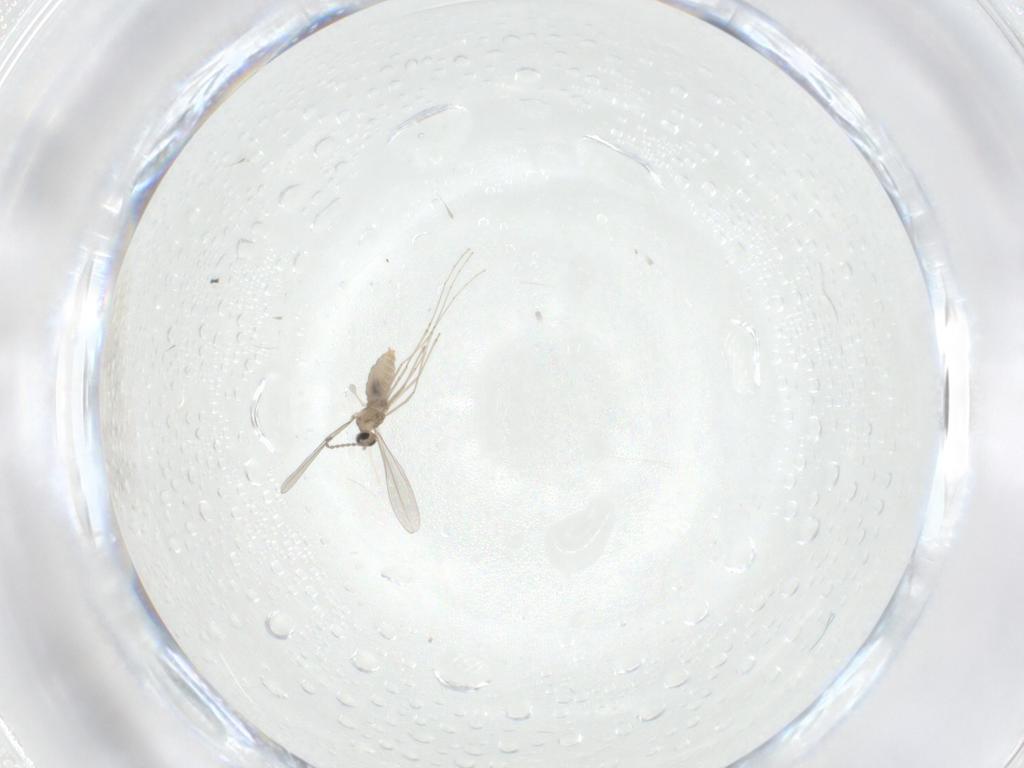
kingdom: Animalia
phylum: Arthropoda
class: Insecta
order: Diptera
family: Cecidomyiidae
